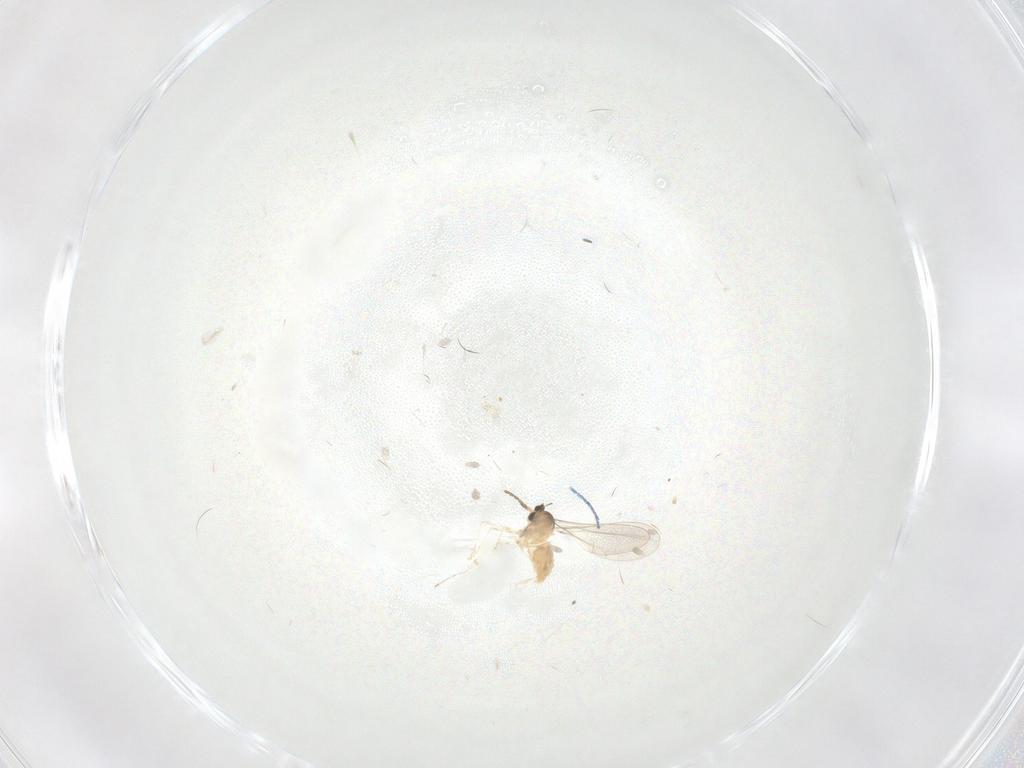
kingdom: Animalia
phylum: Arthropoda
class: Insecta
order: Diptera
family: Cecidomyiidae
